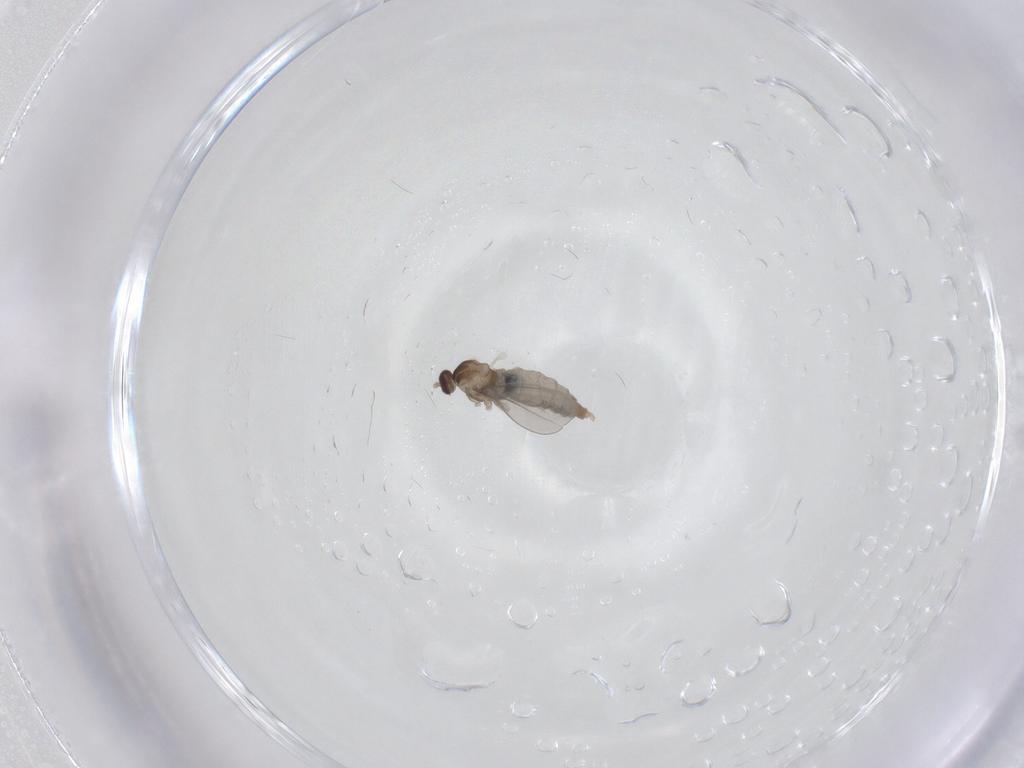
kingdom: Animalia
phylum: Arthropoda
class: Insecta
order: Diptera
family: Cecidomyiidae
